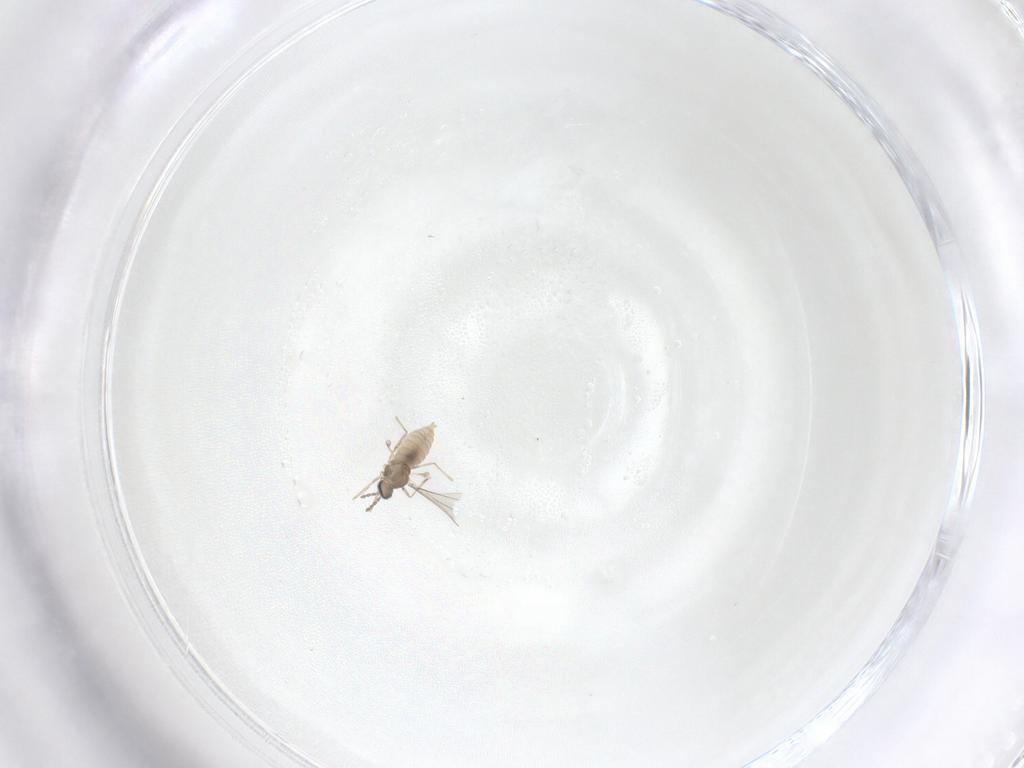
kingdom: Animalia
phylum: Arthropoda
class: Insecta
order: Diptera
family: Cecidomyiidae
